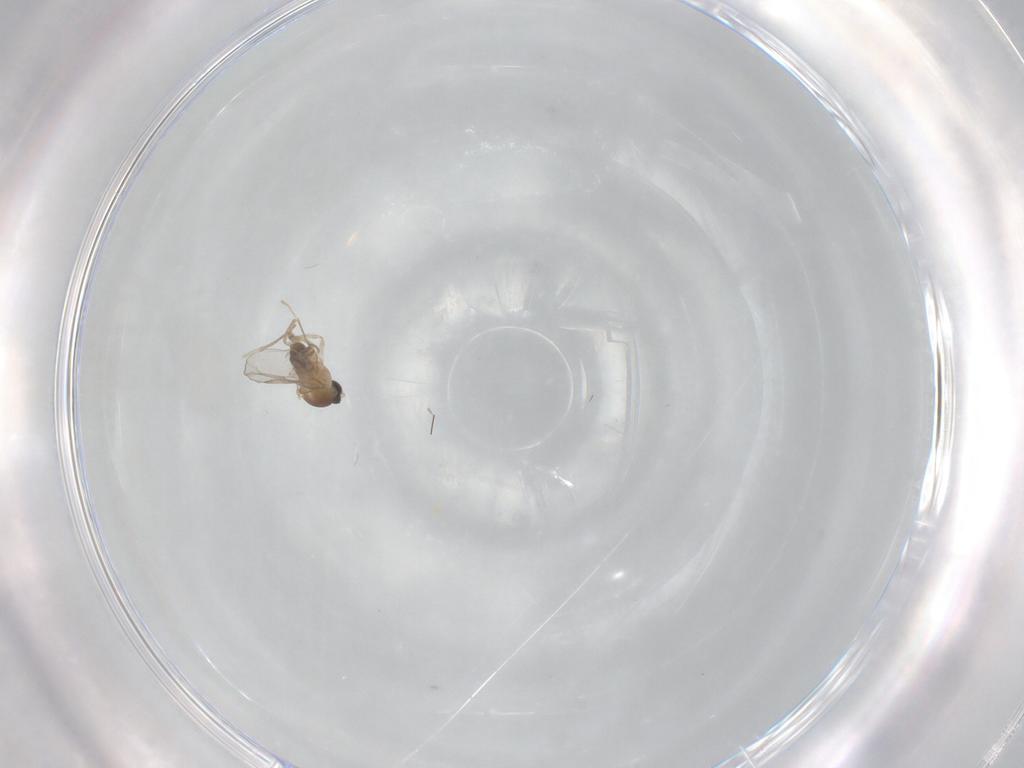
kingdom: Animalia
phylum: Arthropoda
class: Insecta
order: Diptera
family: Cecidomyiidae
